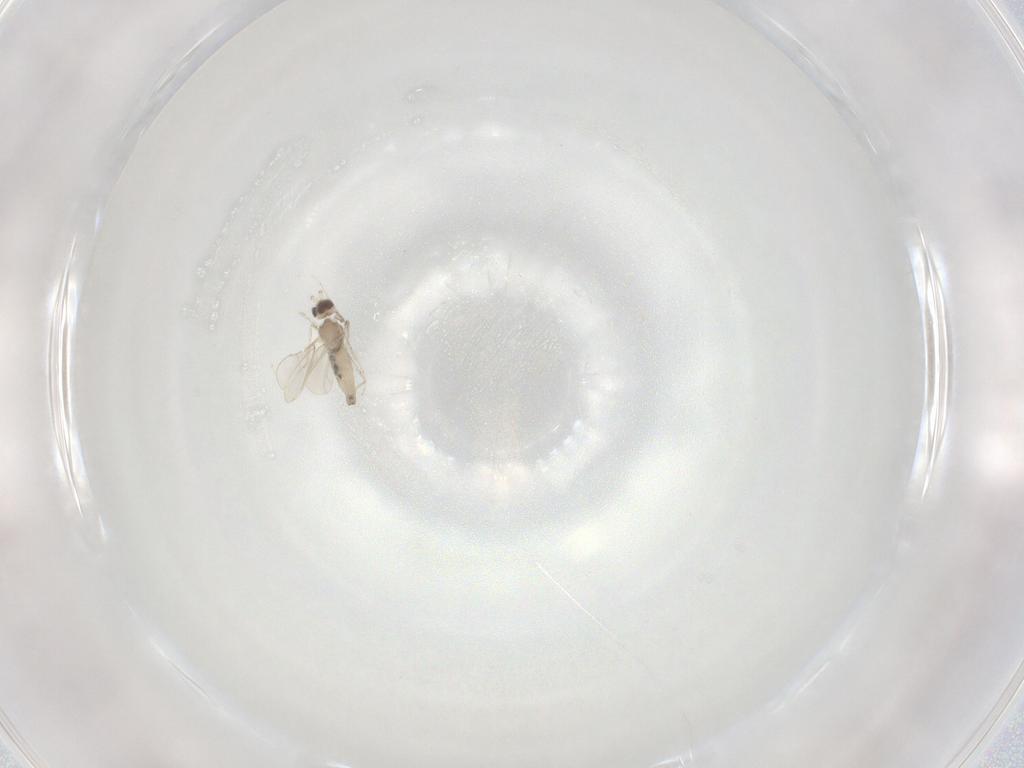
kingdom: Animalia
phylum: Arthropoda
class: Insecta
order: Diptera
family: Cecidomyiidae
